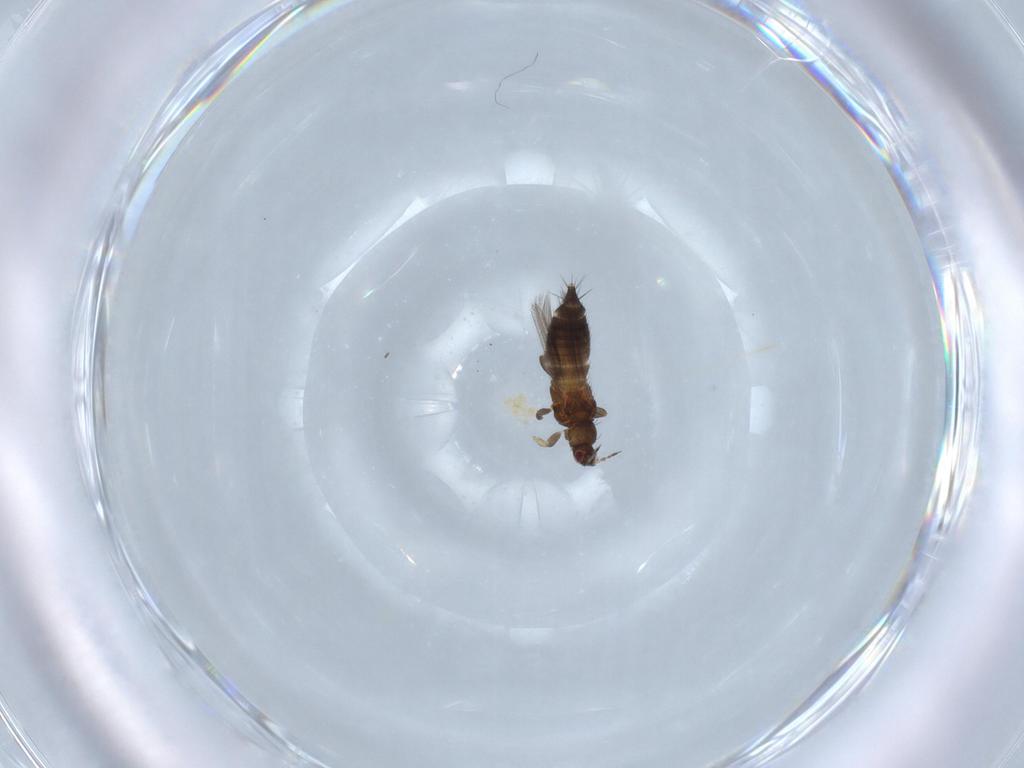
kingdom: Animalia
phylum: Arthropoda
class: Insecta
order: Thysanoptera
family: Thripidae
